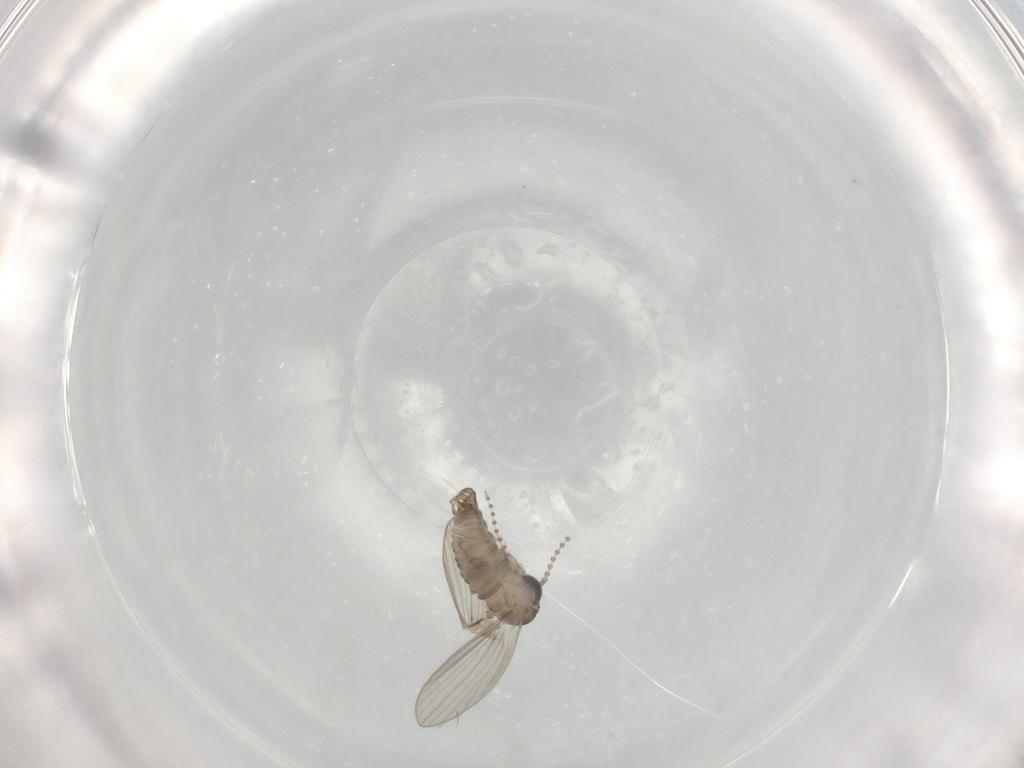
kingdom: Animalia
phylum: Arthropoda
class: Insecta
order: Diptera
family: Psychodidae
